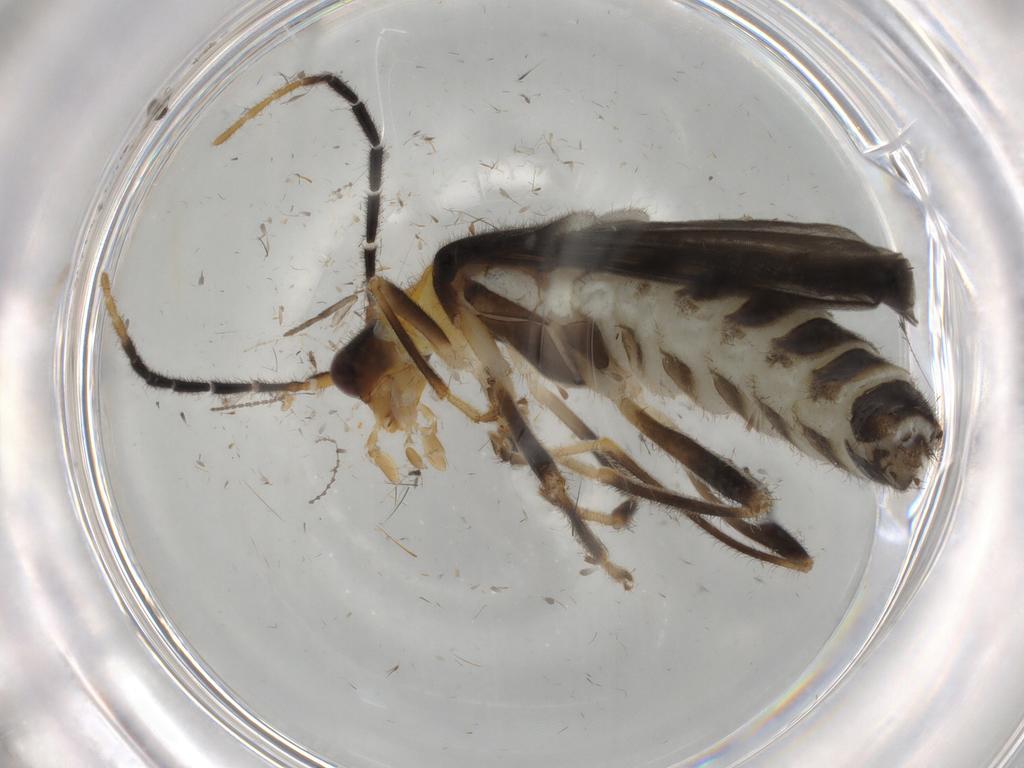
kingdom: Animalia
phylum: Arthropoda
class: Insecta
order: Coleoptera
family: Cantharidae
